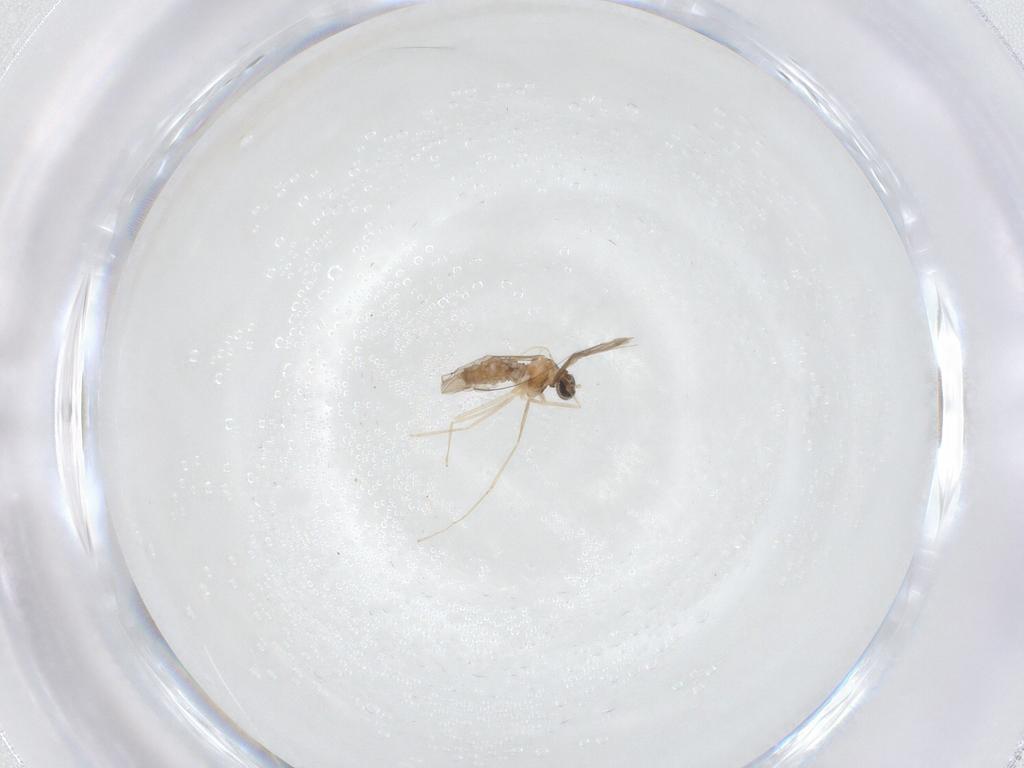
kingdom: Animalia
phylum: Arthropoda
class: Insecta
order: Diptera
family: Cecidomyiidae
